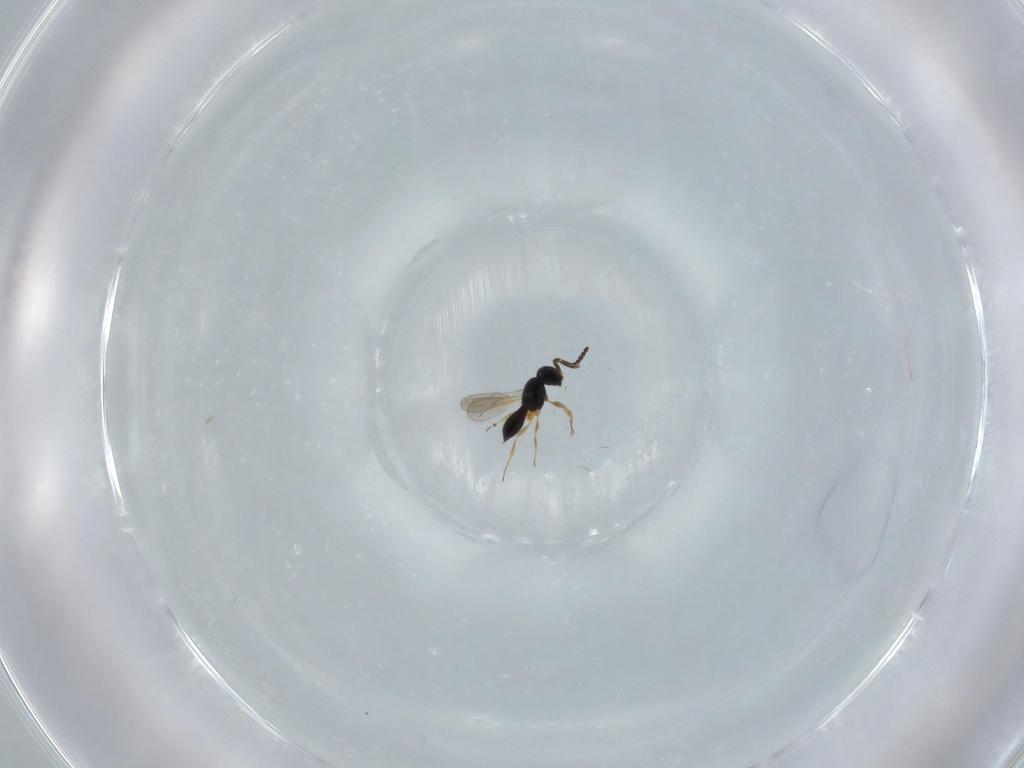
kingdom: Animalia
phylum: Arthropoda
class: Insecta
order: Hymenoptera
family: Scelionidae
